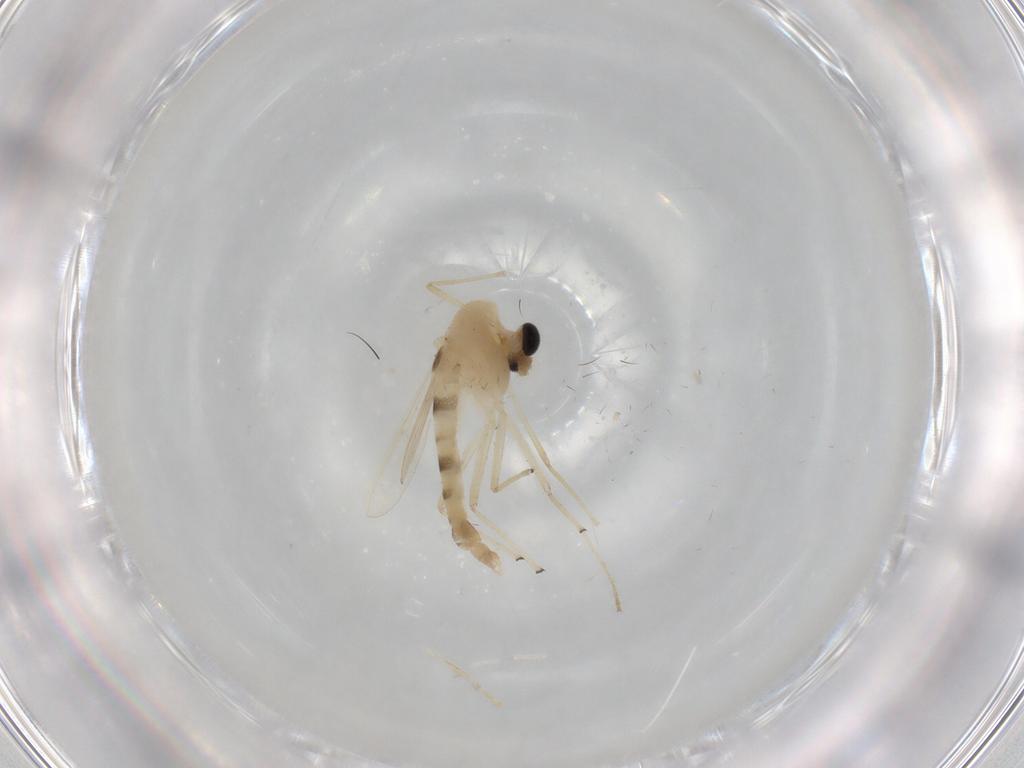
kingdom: Animalia
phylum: Arthropoda
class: Insecta
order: Diptera
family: Chironomidae
